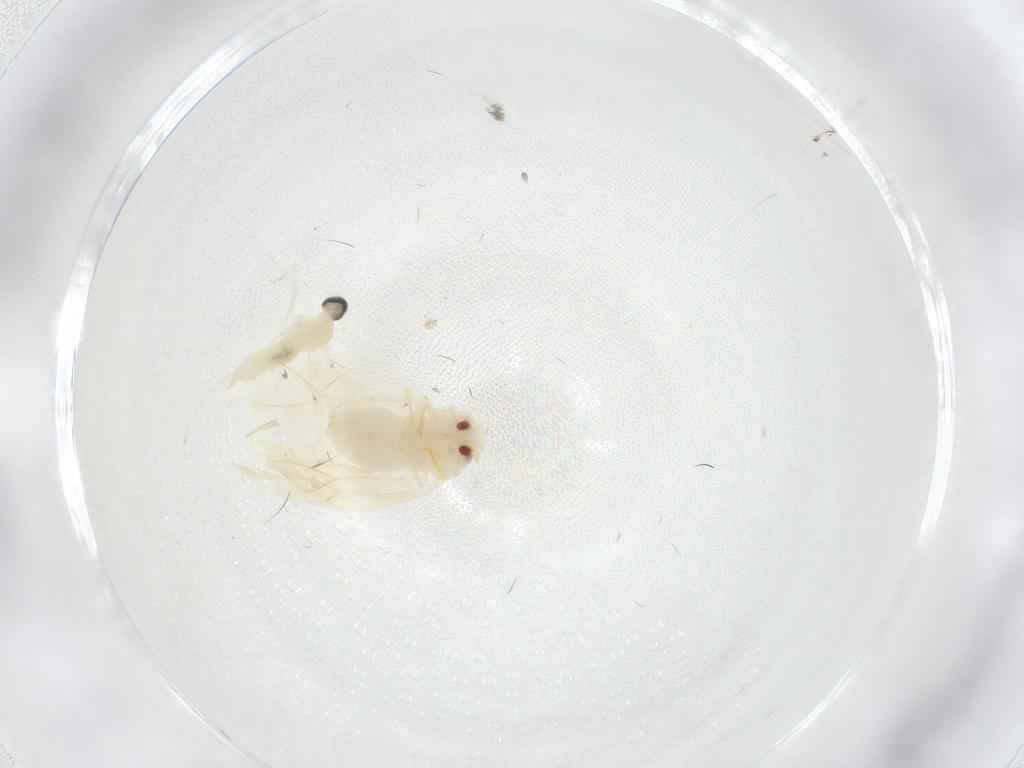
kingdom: Animalia
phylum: Arthropoda
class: Insecta
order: Diptera
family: Cecidomyiidae
